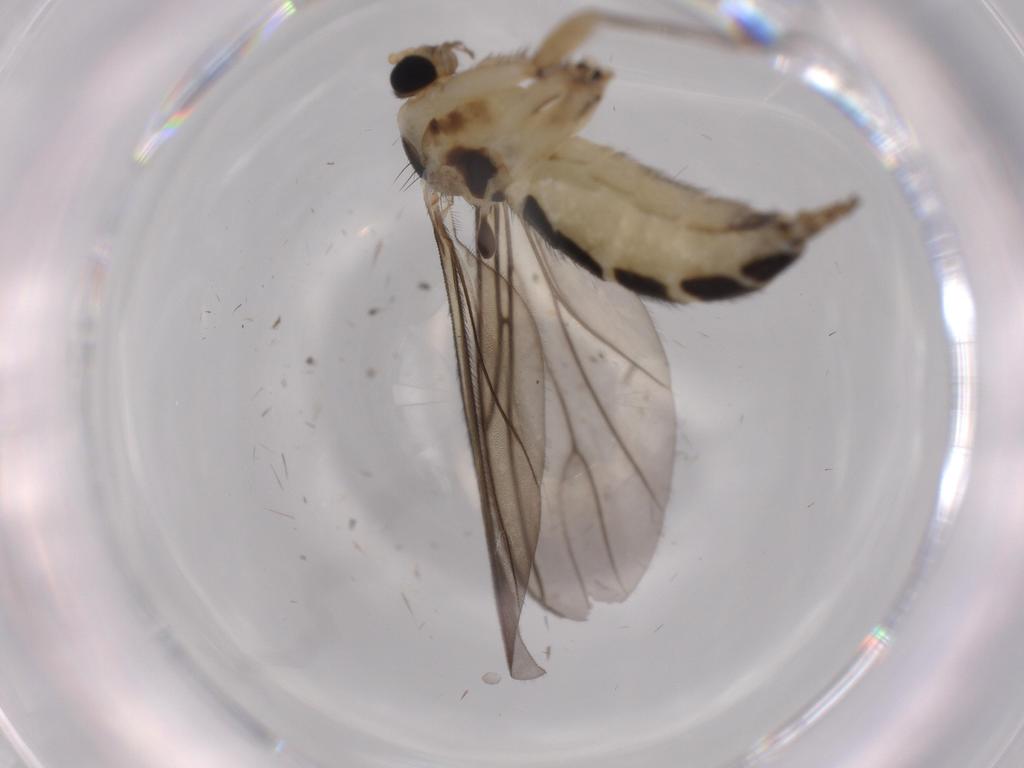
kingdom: Animalia
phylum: Arthropoda
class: Insecta
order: Diptera
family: Sciaridae
